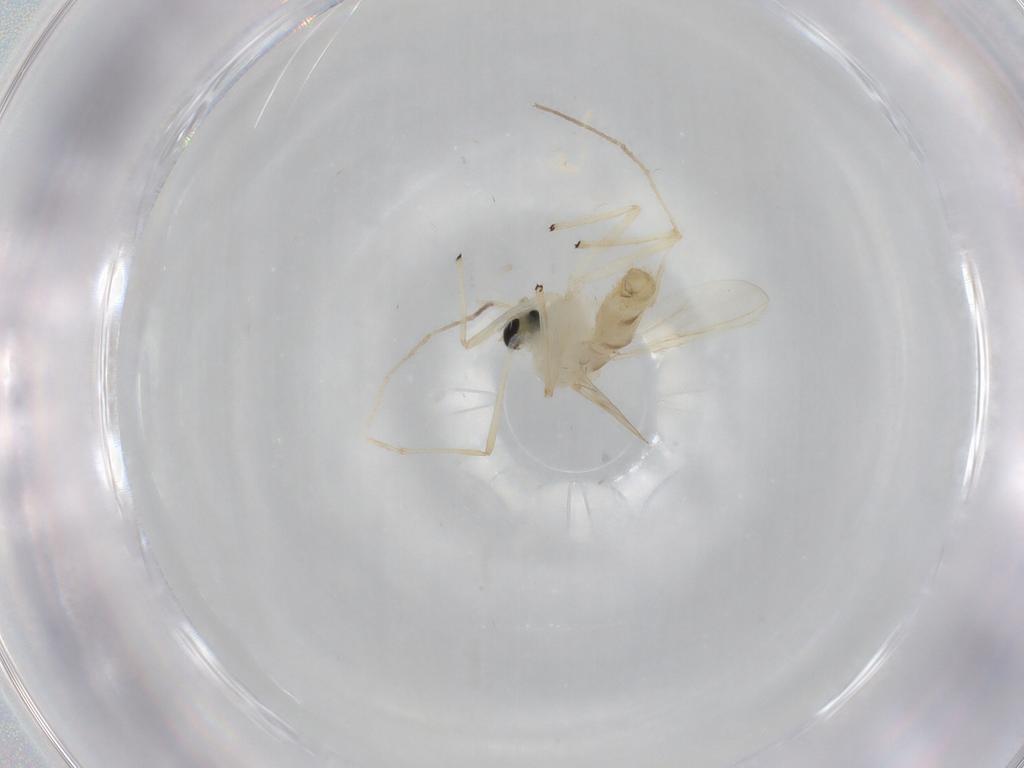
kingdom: Animalia
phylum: Arthropoda
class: Insecta
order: Diptera
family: Chironomidae
